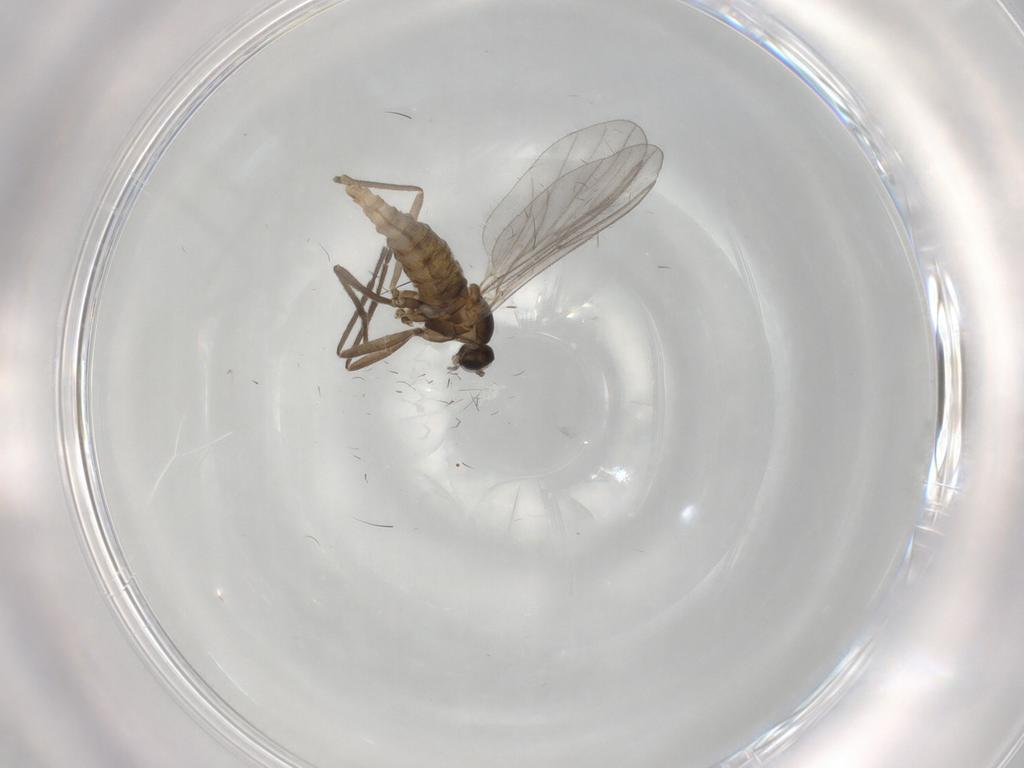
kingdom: Animalia
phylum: Arthropoda
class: Insecta
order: Diptera
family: Cecidomyiidae
